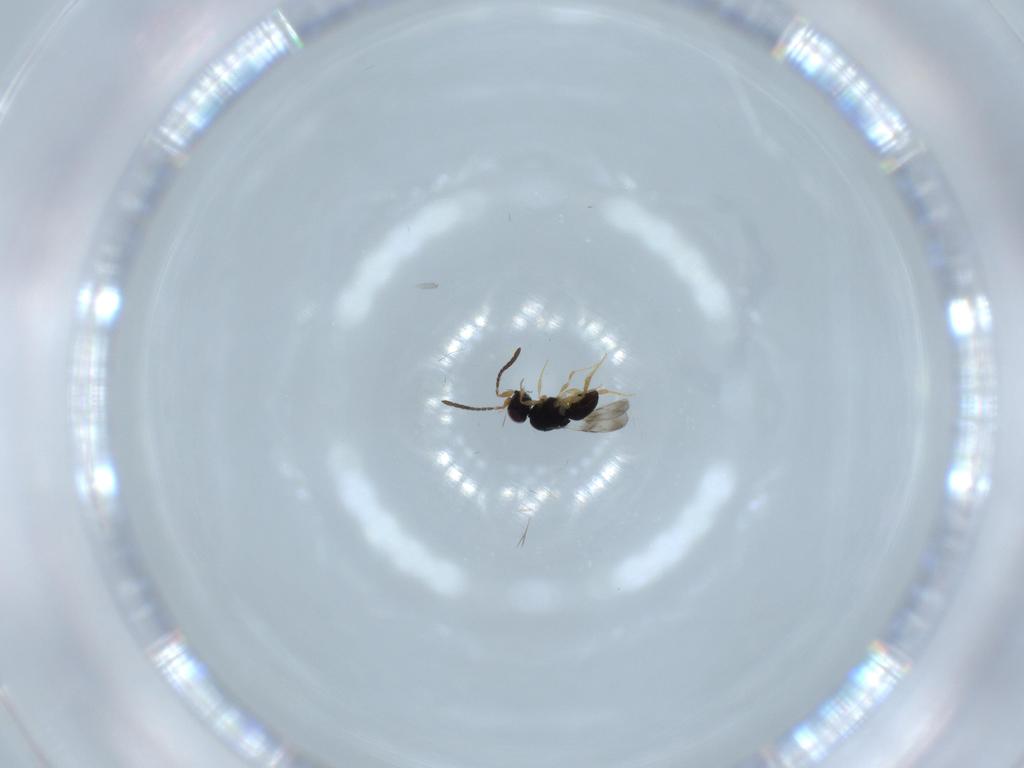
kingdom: Animalia
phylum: Arthropoda
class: Insecta
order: Hymenoptera
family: Ceraphronidae
